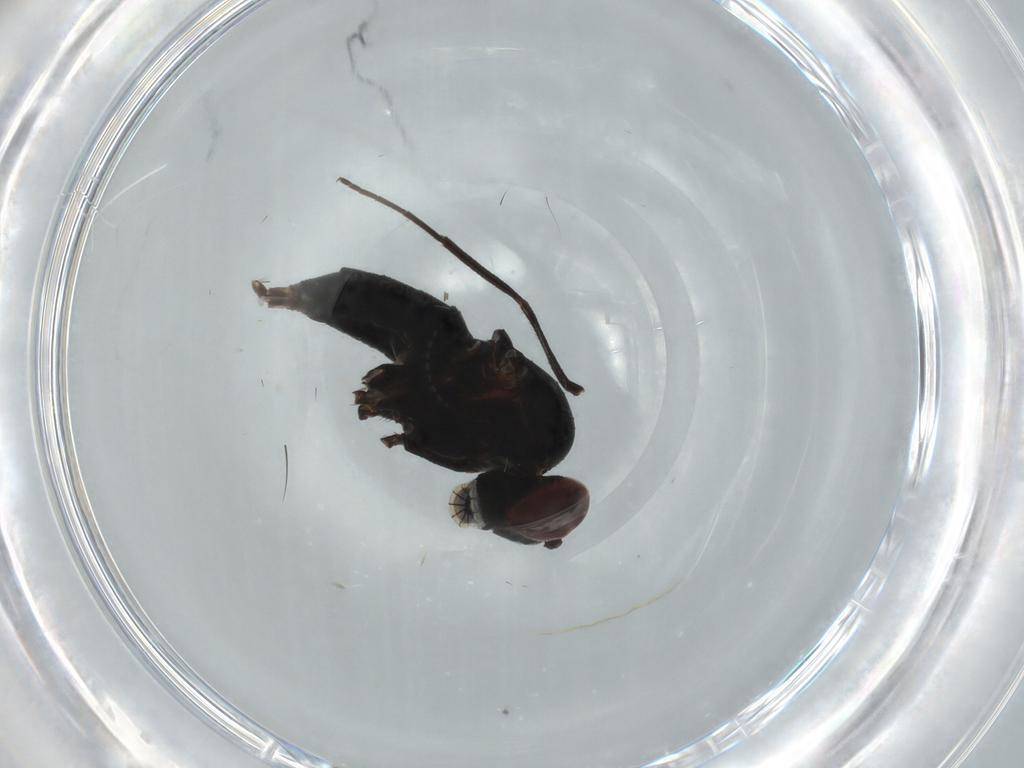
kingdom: Animalia
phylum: Arthropoda
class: Insecta
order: Diptera
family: Dolichopodidae
